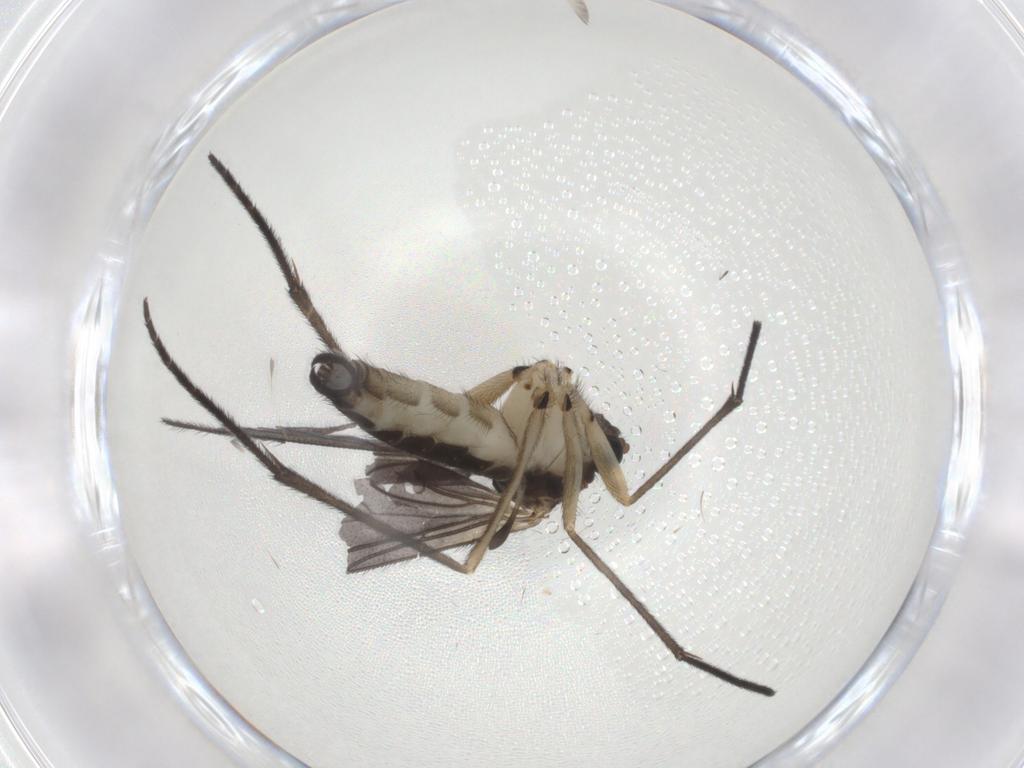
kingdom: Animalia
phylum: Arthropoda
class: Insecta
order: Diptera
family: Sciaridae
